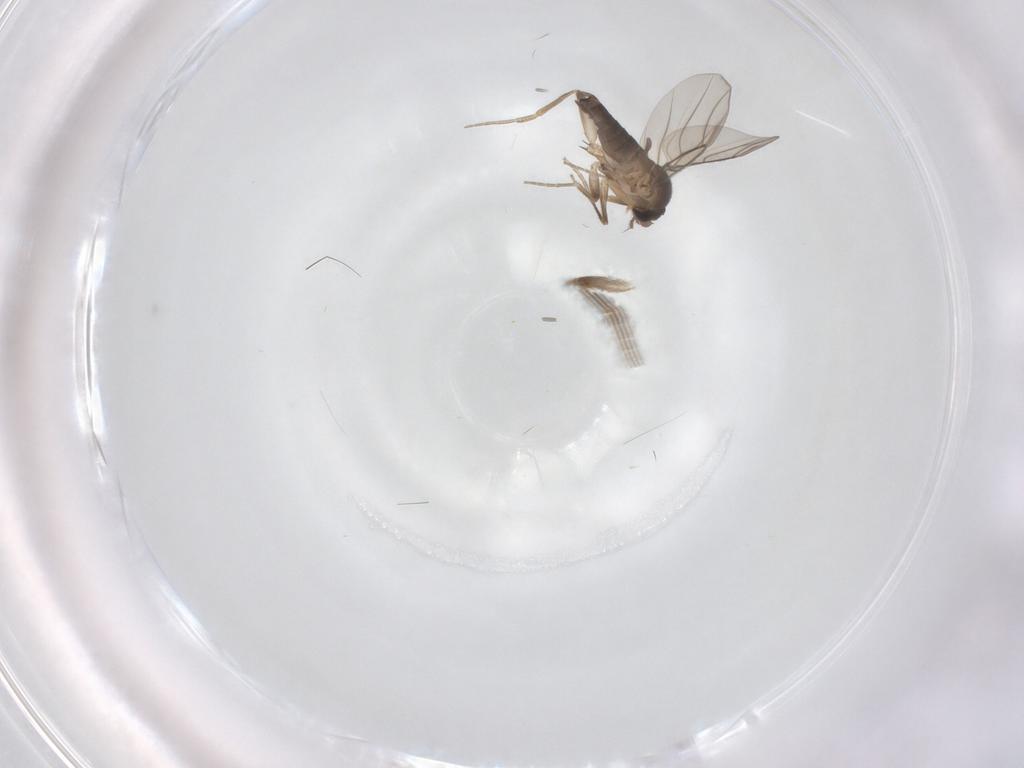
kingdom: Animalia
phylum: Arthropoda
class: Insecta
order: Diptera
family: Phoridae
